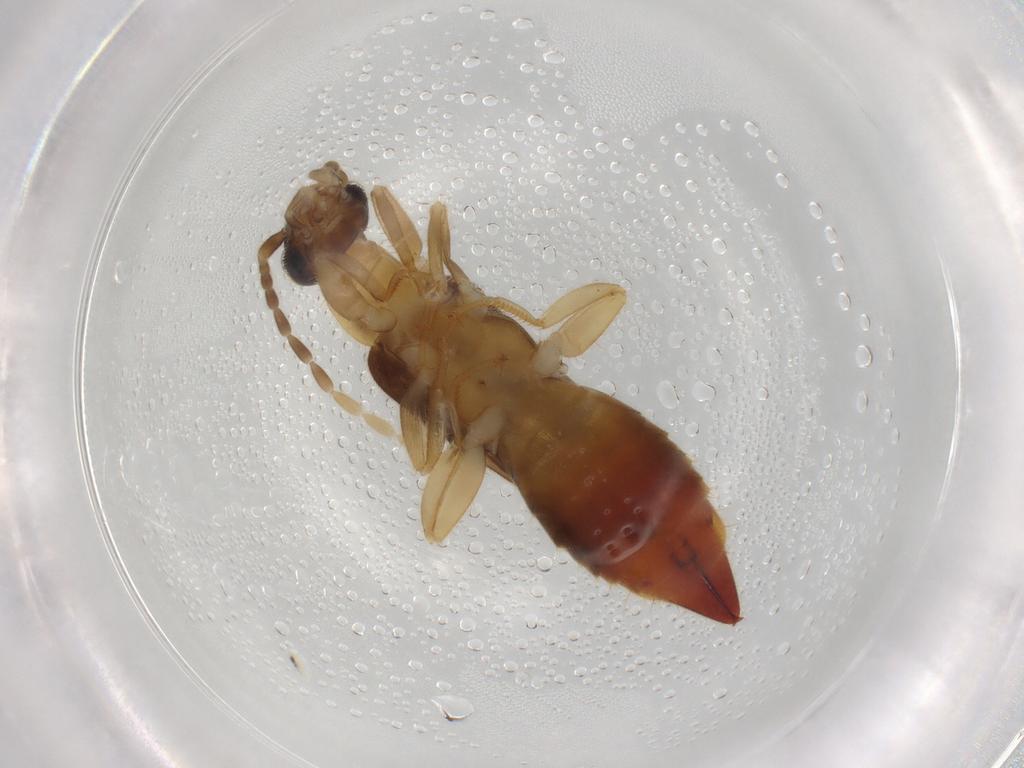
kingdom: Animalia
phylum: Arthropoda
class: Insecta
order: Dermaptera
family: Spongiphoridae
